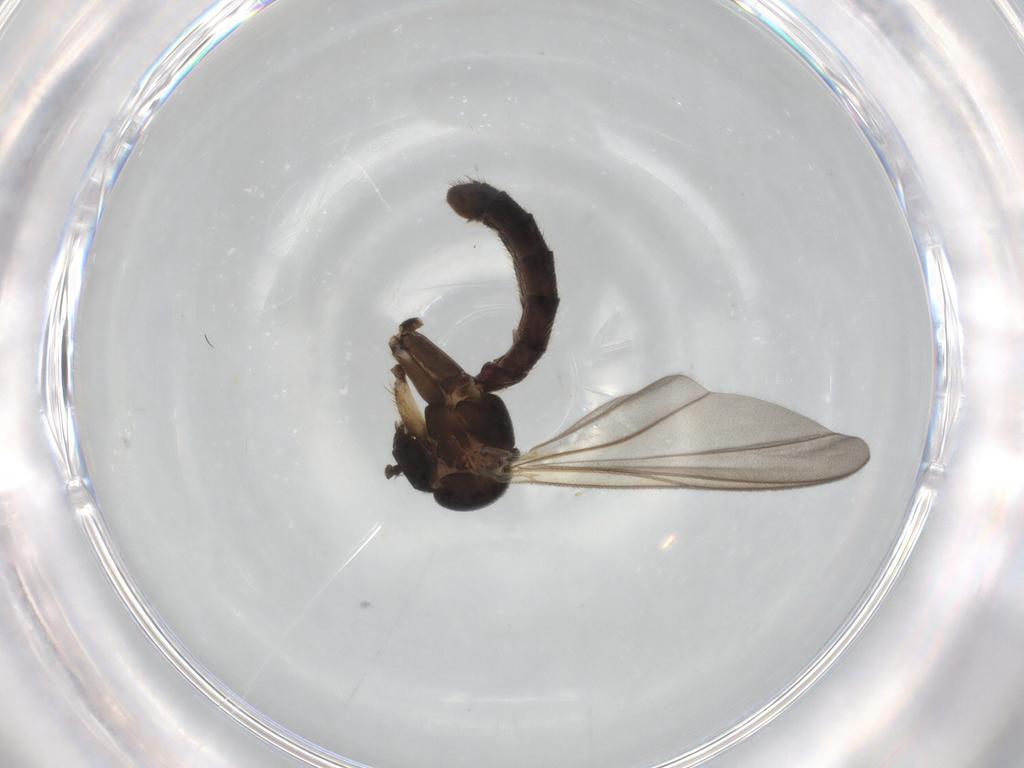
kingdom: Animalia
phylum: Arthropoda
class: Insecta
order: Diptera
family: Mycetophilidae
